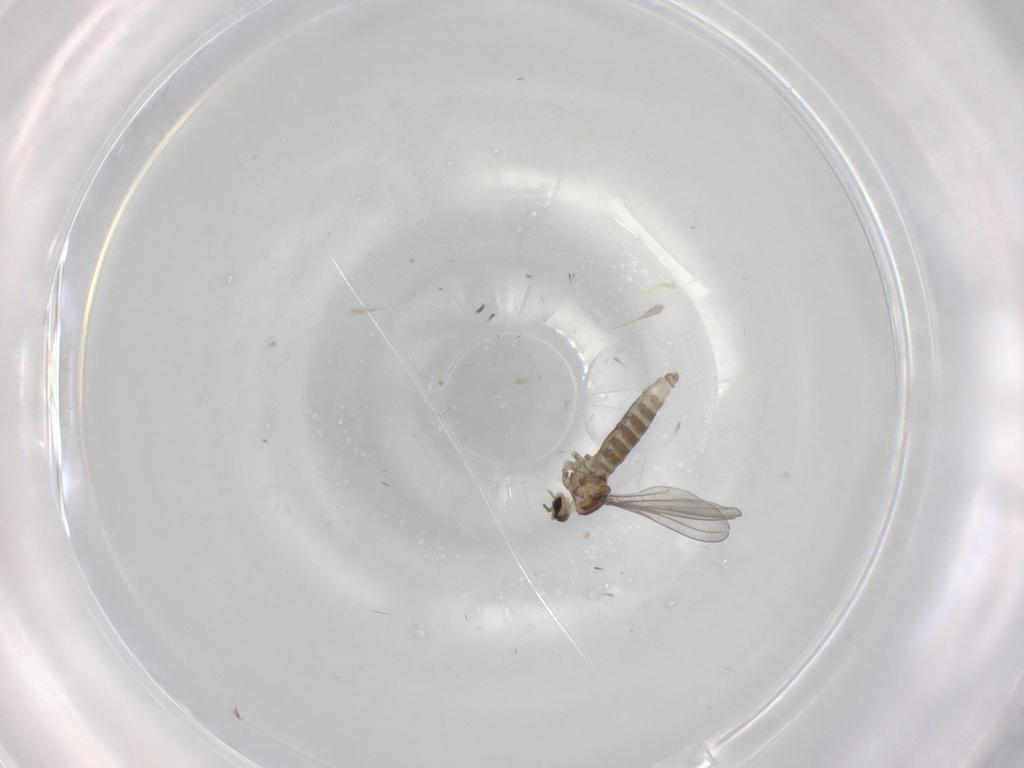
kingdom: Animalia
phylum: Arthropoda
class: Insecta
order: Diptera
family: Cecidomyiidae
